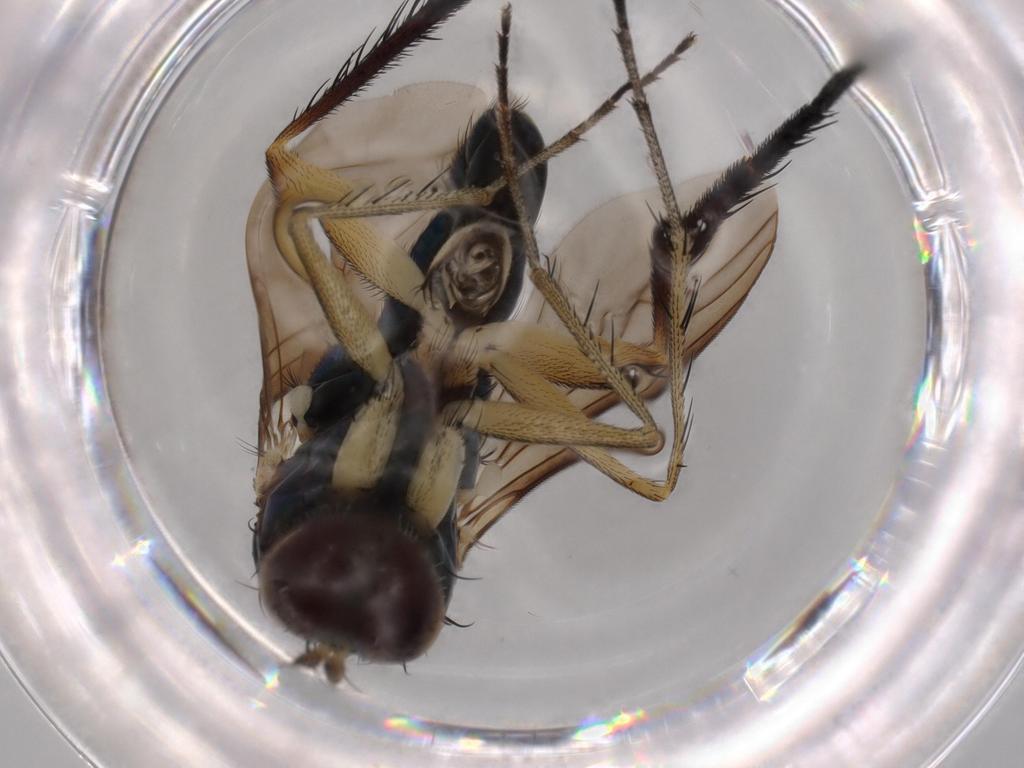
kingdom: Animalia
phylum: Arthropoda
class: Insecta
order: Diptera
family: Dolichopodidae
